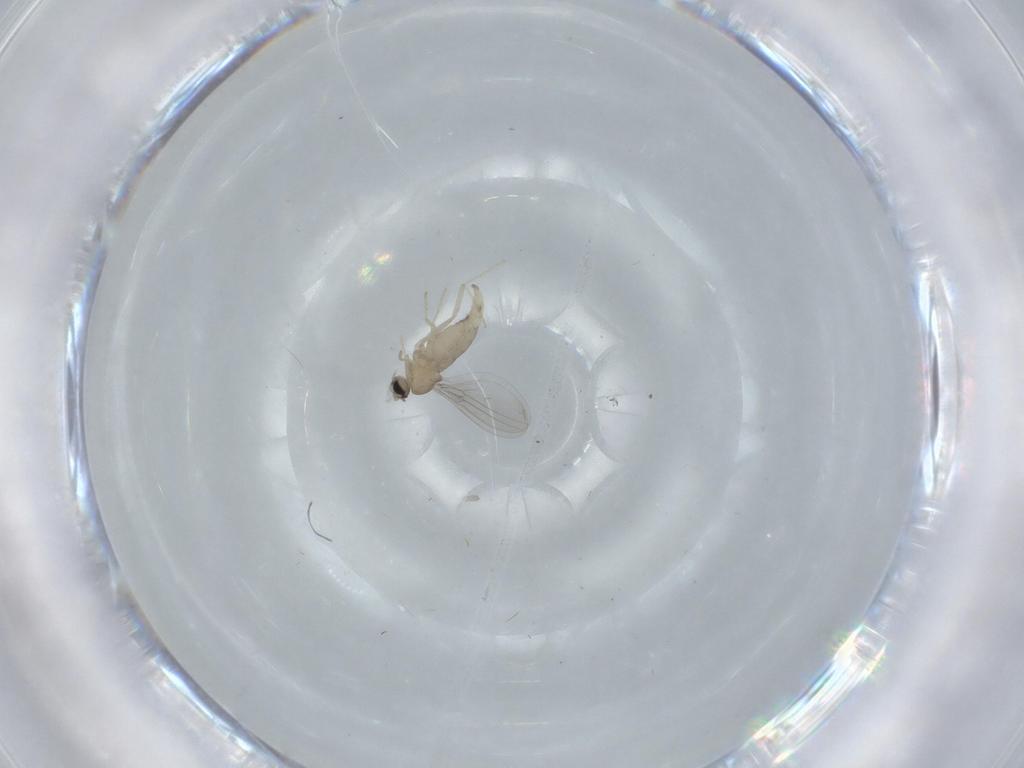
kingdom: Animalia
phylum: Arthropoda
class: Insecta
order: Diptera
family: Cecidomyiidae
